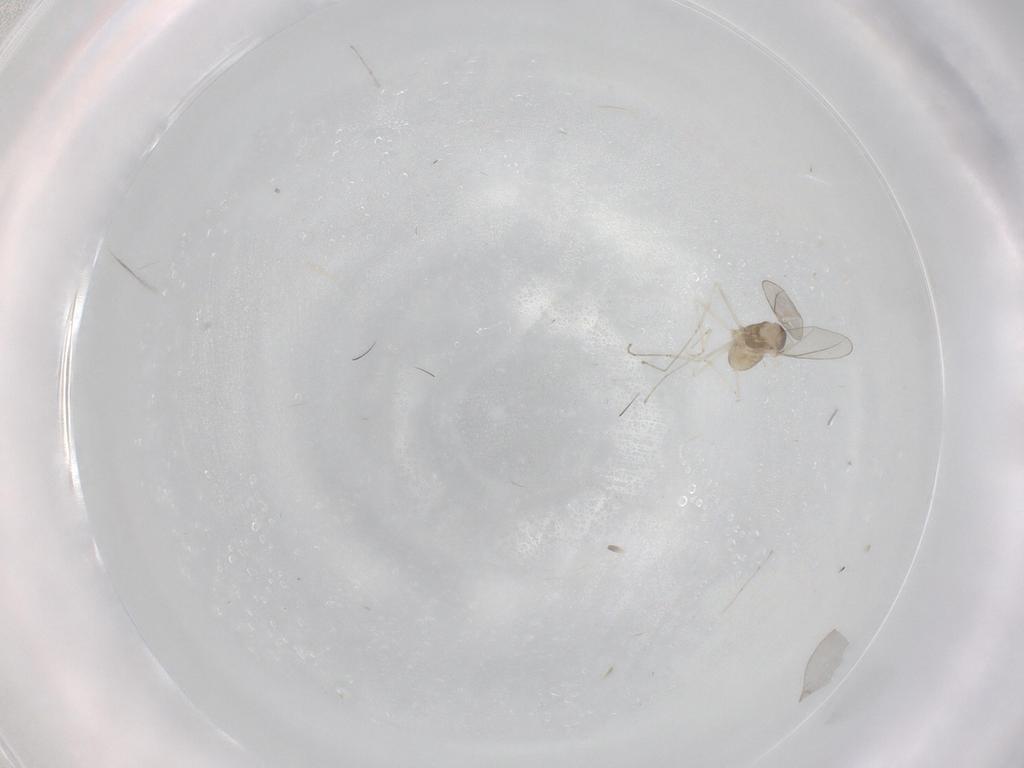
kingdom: Animalia
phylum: Arthropoda
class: Insecta
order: Diptera
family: Cecidomyiidae
